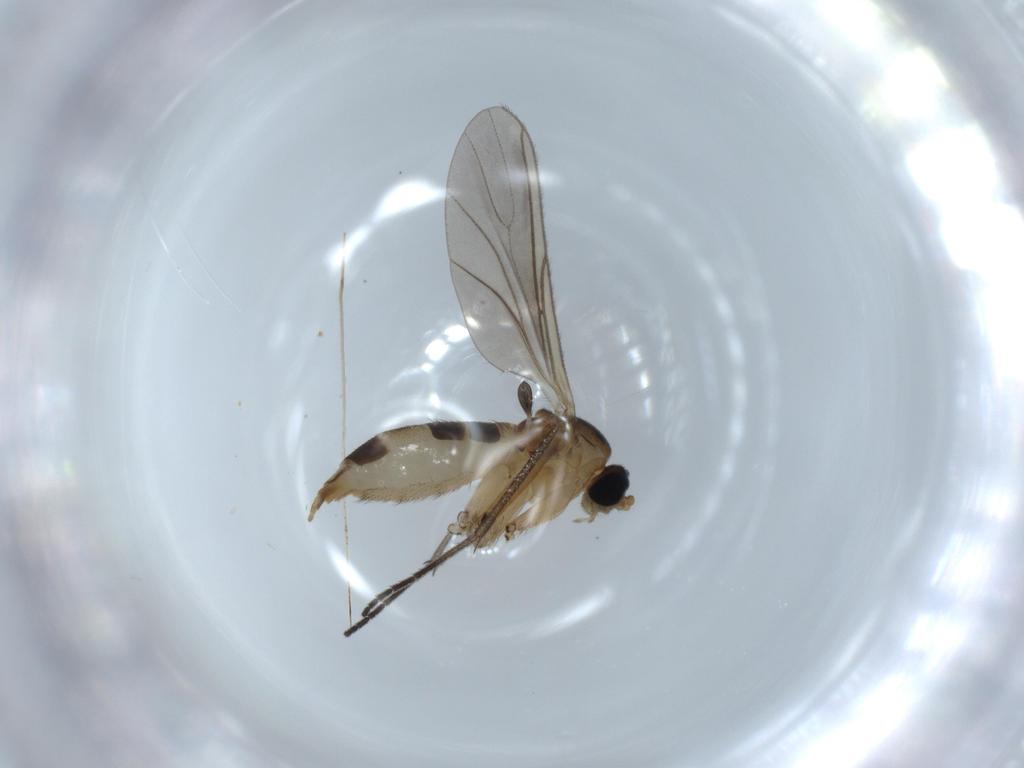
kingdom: Animalia
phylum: Arthropoda
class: Insecta
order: Diptera
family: Sciaridae
